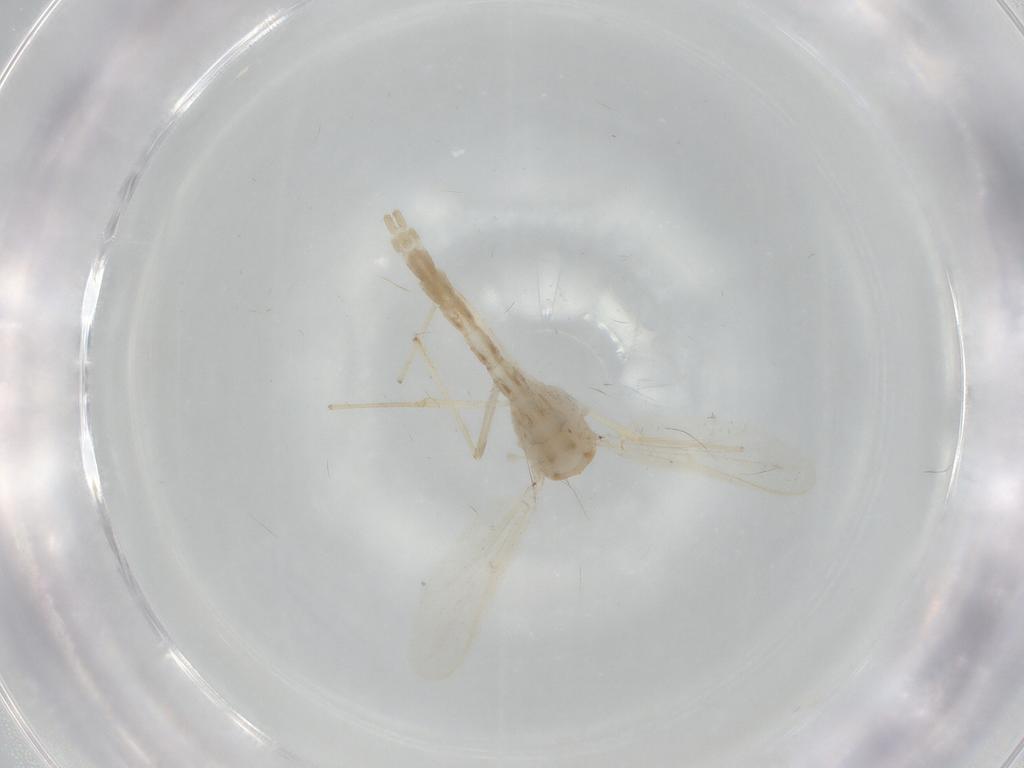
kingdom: Animalia
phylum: Arthropoda
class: Insecta
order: Diptera
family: Chironomidae
